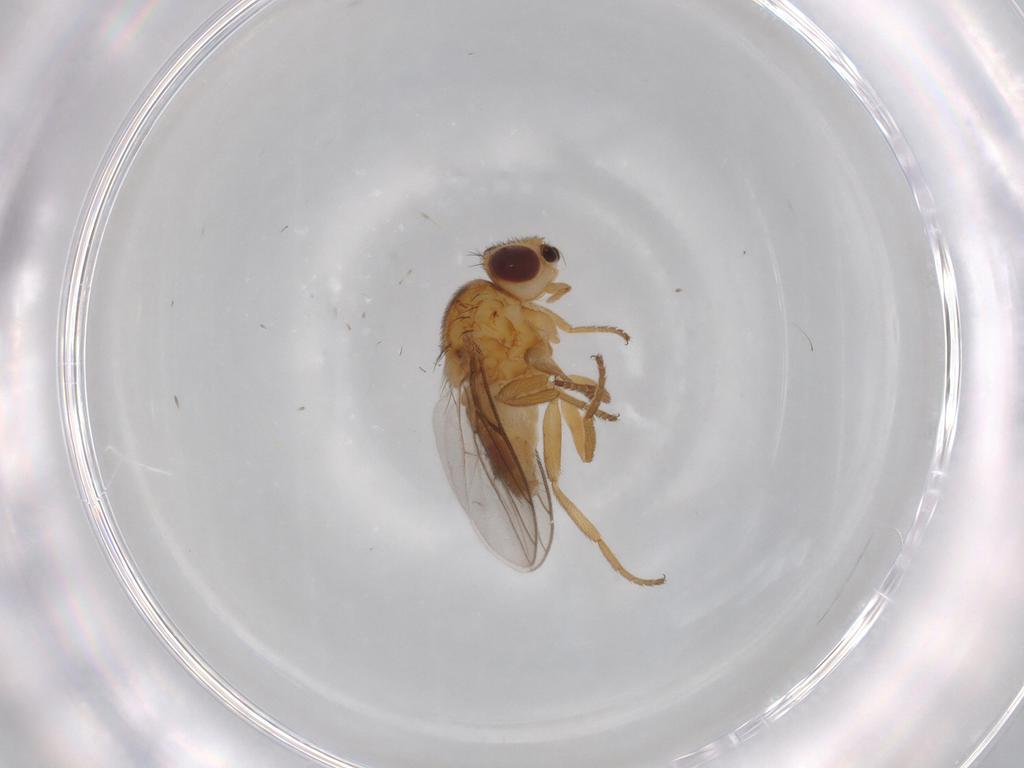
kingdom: Animalia
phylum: Arthropoda
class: Insecta
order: Diptera
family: Chloropidae
